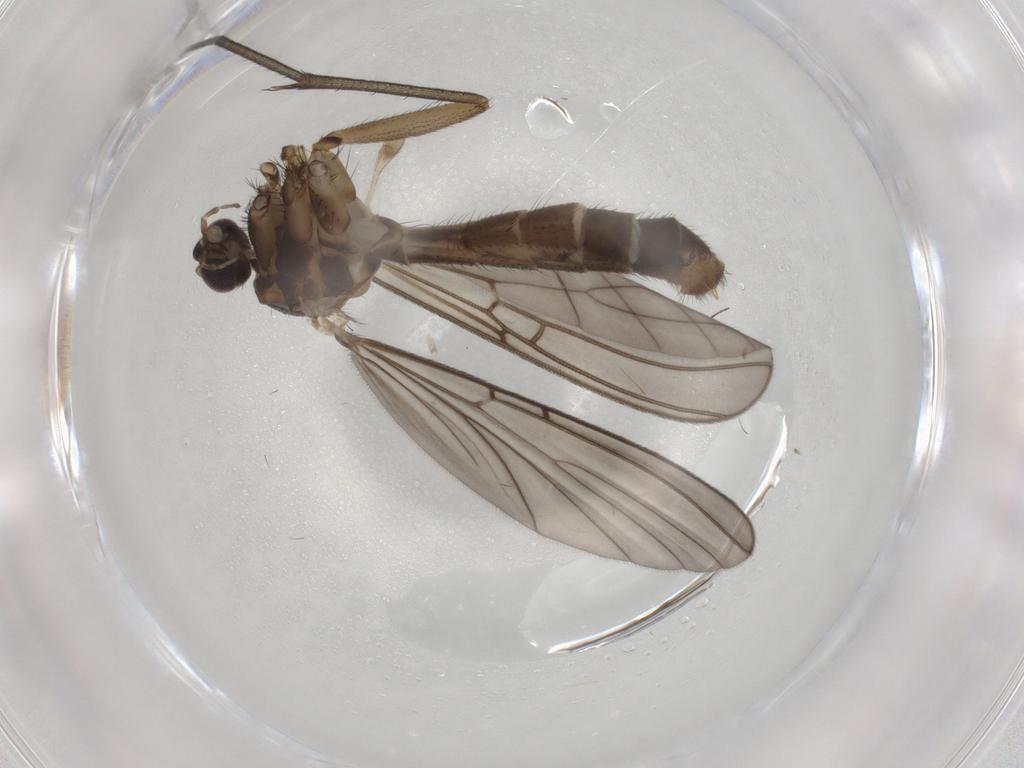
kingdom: Animalia
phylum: Arthropoda
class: Insecta
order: Diptera
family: Mycetophilidae
